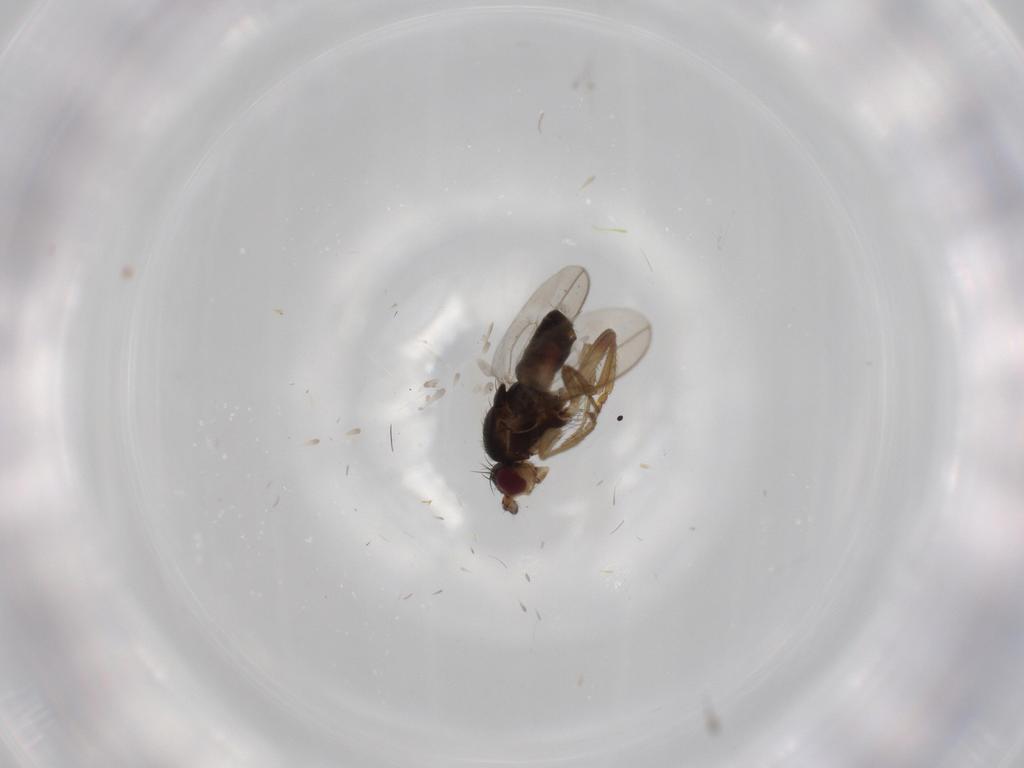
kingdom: Animalia
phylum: Arthropoda
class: Insecta
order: Diptera
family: Sphaeroceridae
